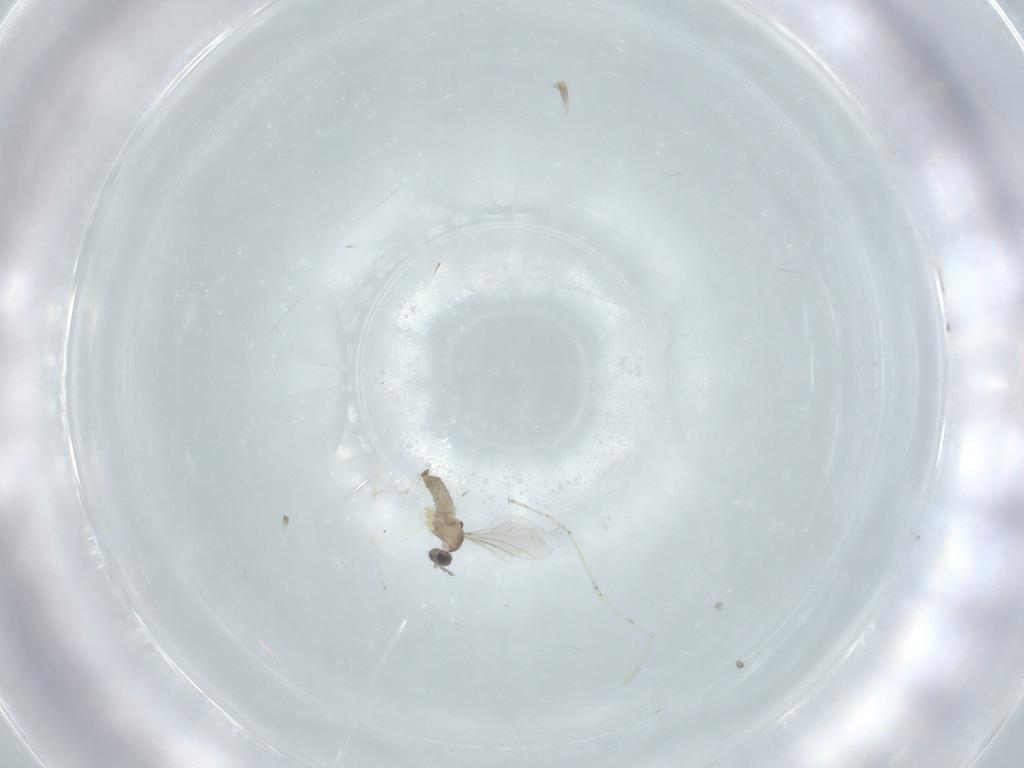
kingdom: Animalia
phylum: Arthropoda
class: Insecta
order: Diptera
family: Cecidomyiidae
